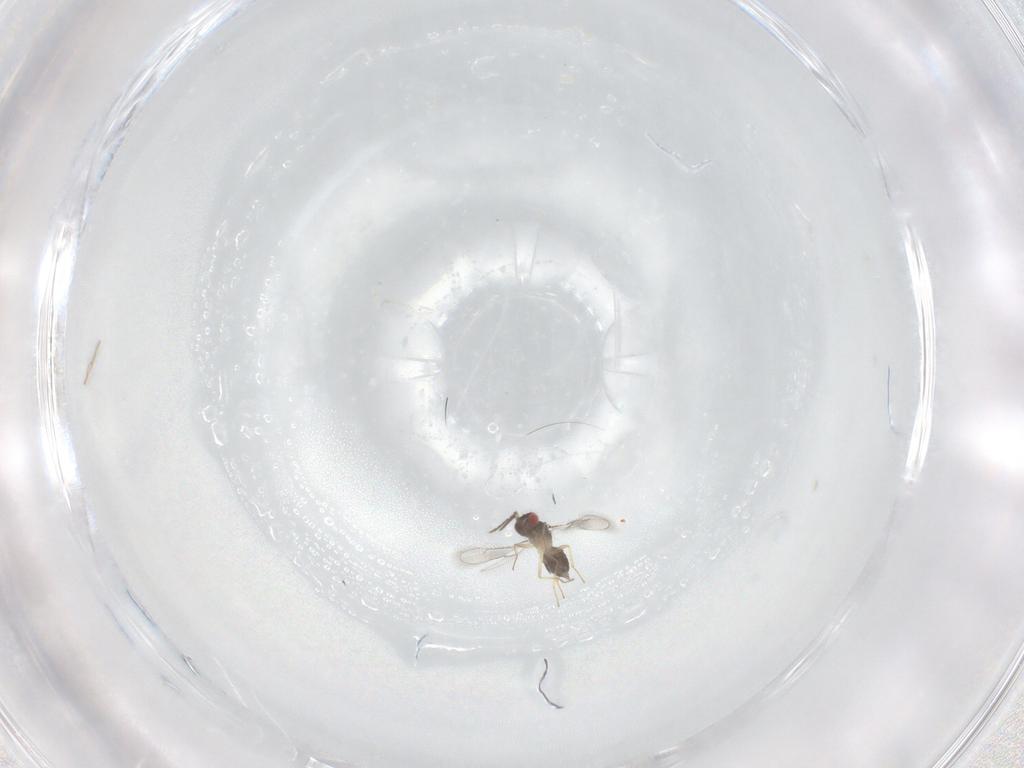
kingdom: Animalia
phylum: Arthropoda
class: Insecta
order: Hymenoptera
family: Eulophidae
